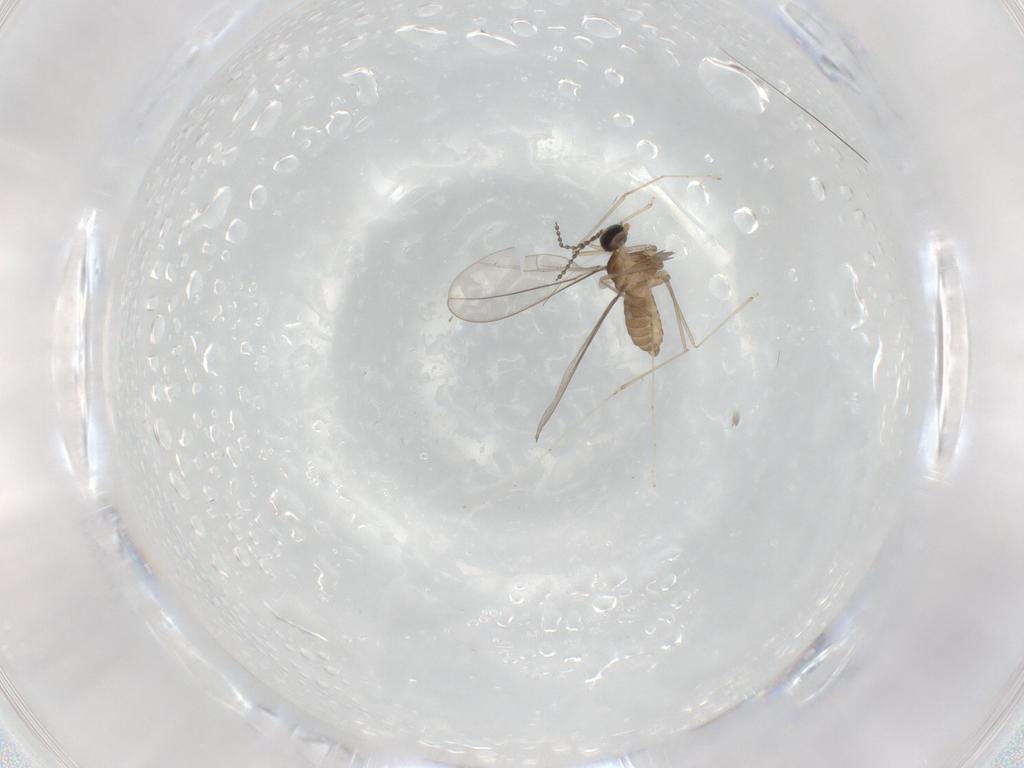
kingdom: Animalia
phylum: Arthropoda
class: Insecta
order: Diptera
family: Cecidomyiidae
